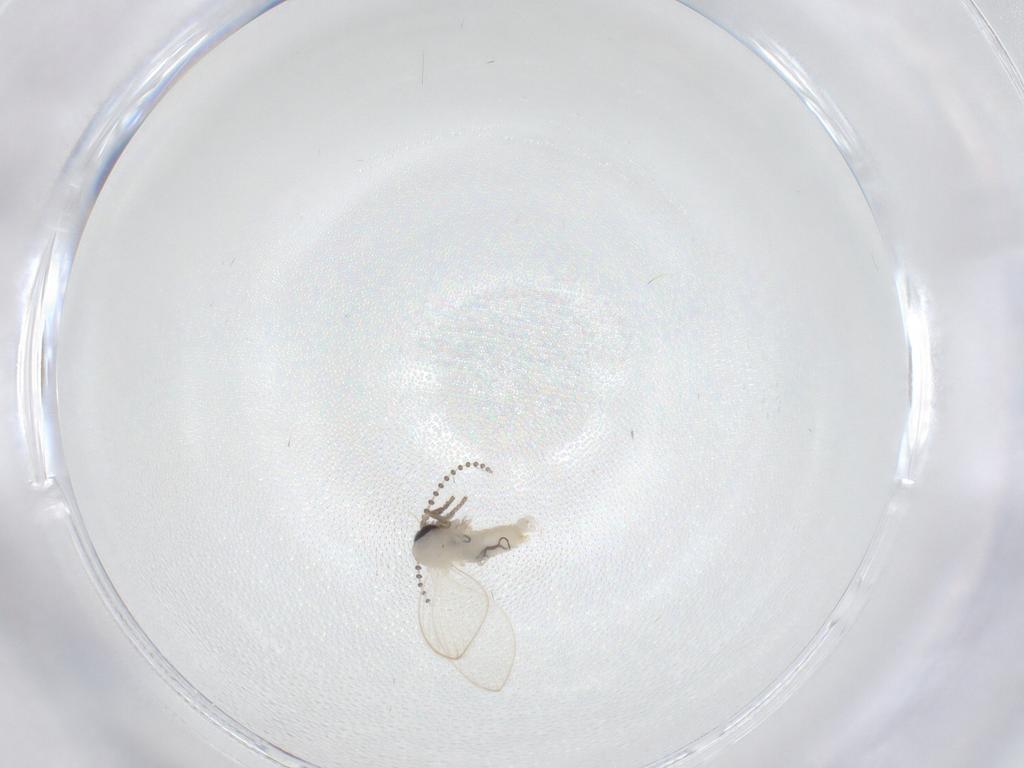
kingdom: Animalia
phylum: Arthropoda
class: Insecta
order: Diptera
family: Psychodidae
